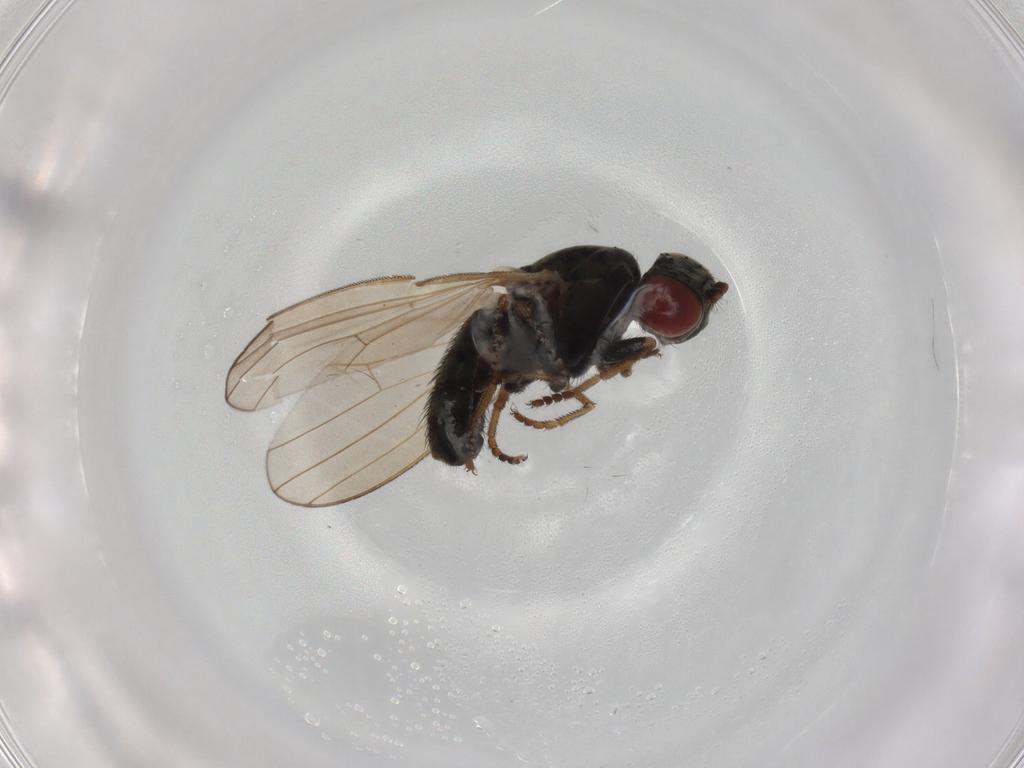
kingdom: Animalia
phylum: Arthropoda
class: Insecta
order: Diptera
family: Chamaemyiidae
